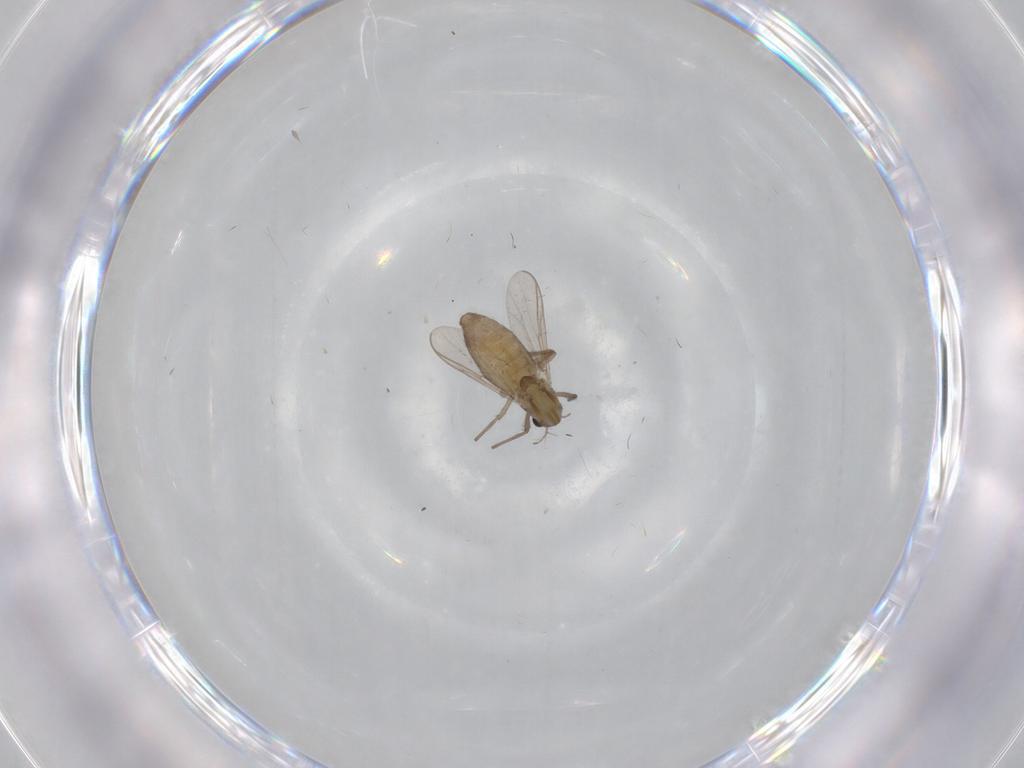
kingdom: Animalia
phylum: Arthropoda
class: Insecta
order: Diptera
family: Chironomidae
